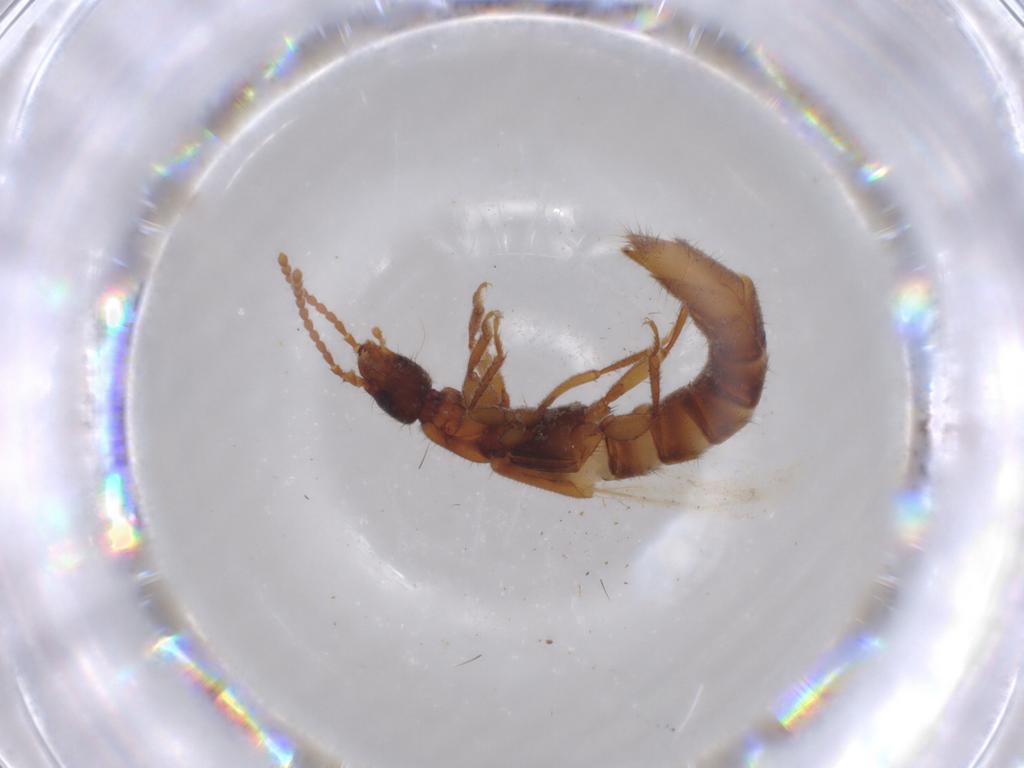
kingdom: Animalia
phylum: Arthropoda
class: Insecta
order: Coleoptera
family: Staphylinidae
